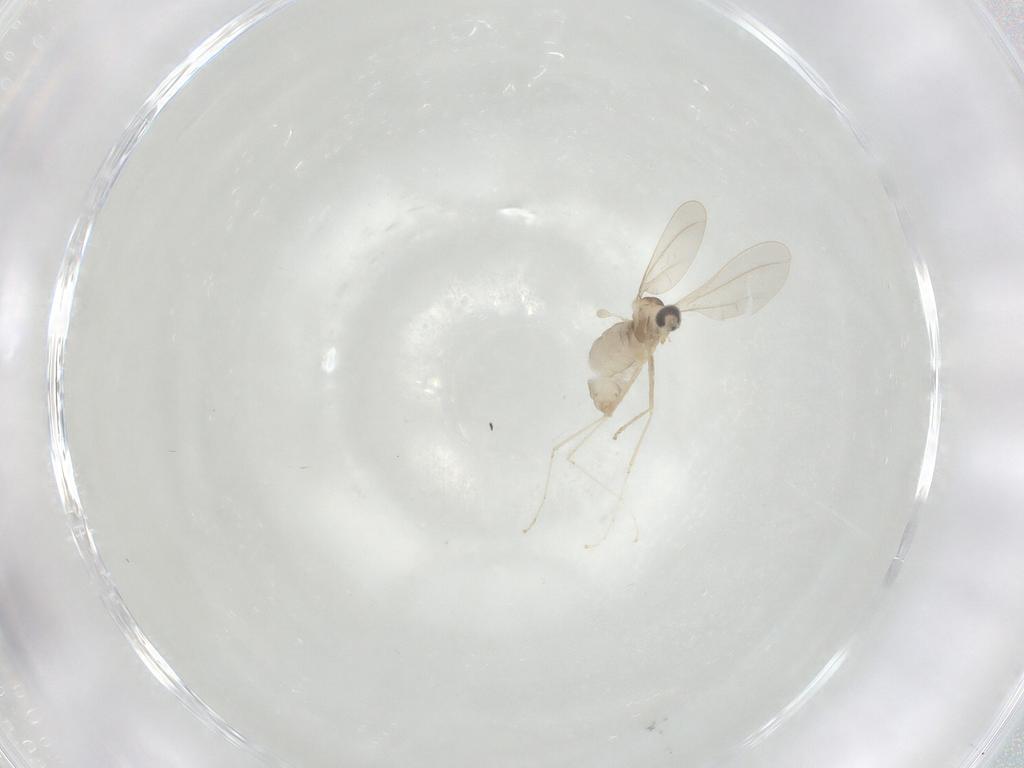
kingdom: Animalia
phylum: Arthropoda
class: Insecta
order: Diptera
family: Cecidomyiidae
